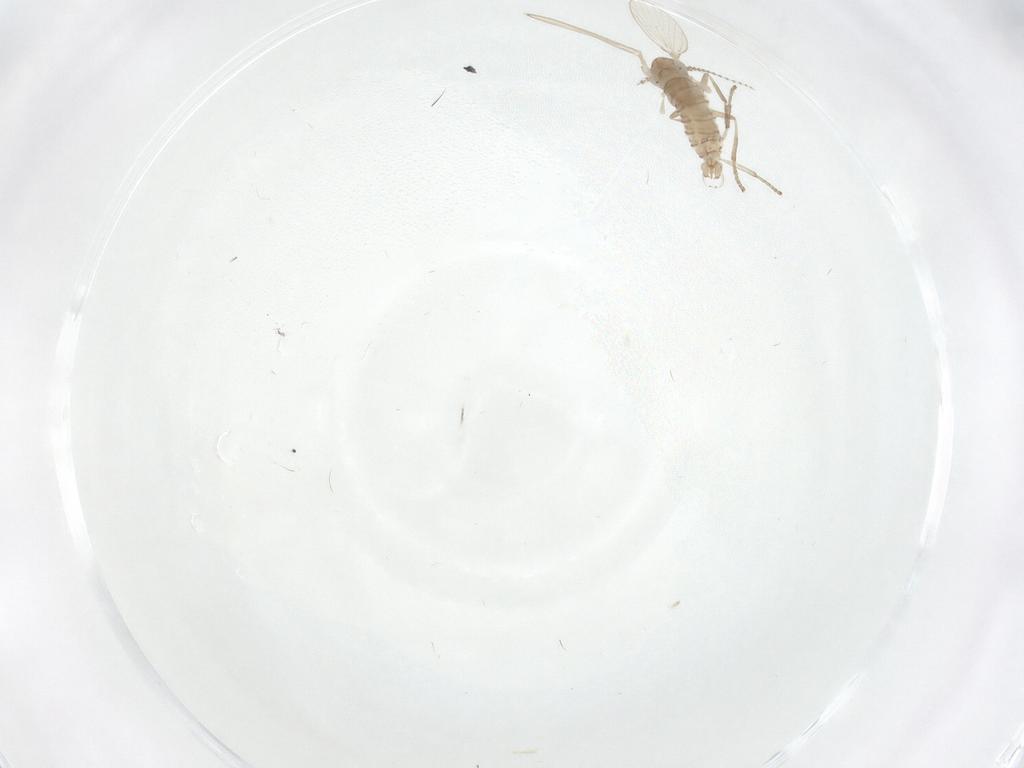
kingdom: Animalia
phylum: Arthropoda
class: Insecta
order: Diptera
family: Psychodidae
